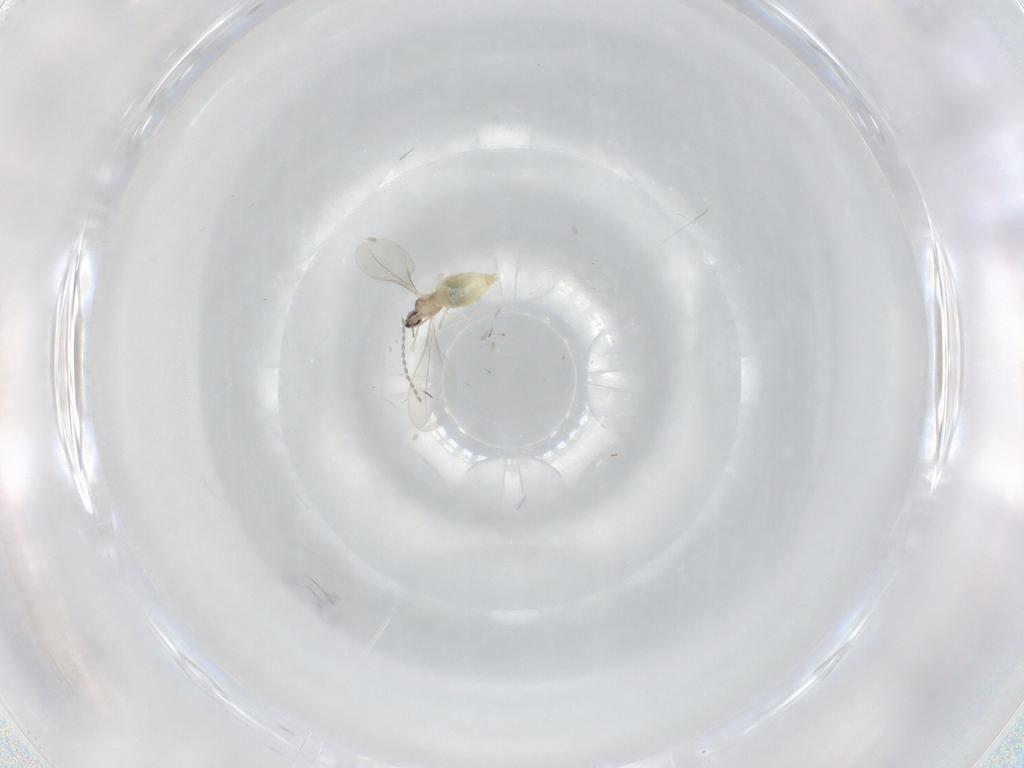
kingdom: Animalia
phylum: Arthropoda
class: Insecta
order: Diptera
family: Cecidomyiidae
